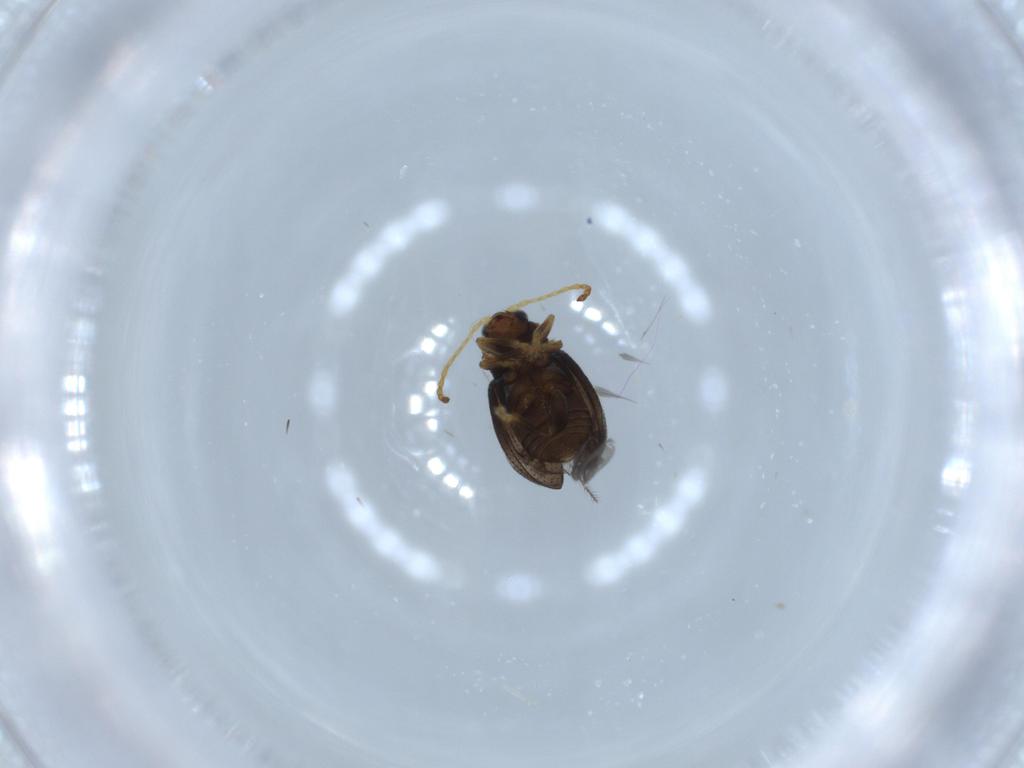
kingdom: Animalia
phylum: Arthropoda
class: Insecta
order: Coleoptera
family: Chrysomelidae
